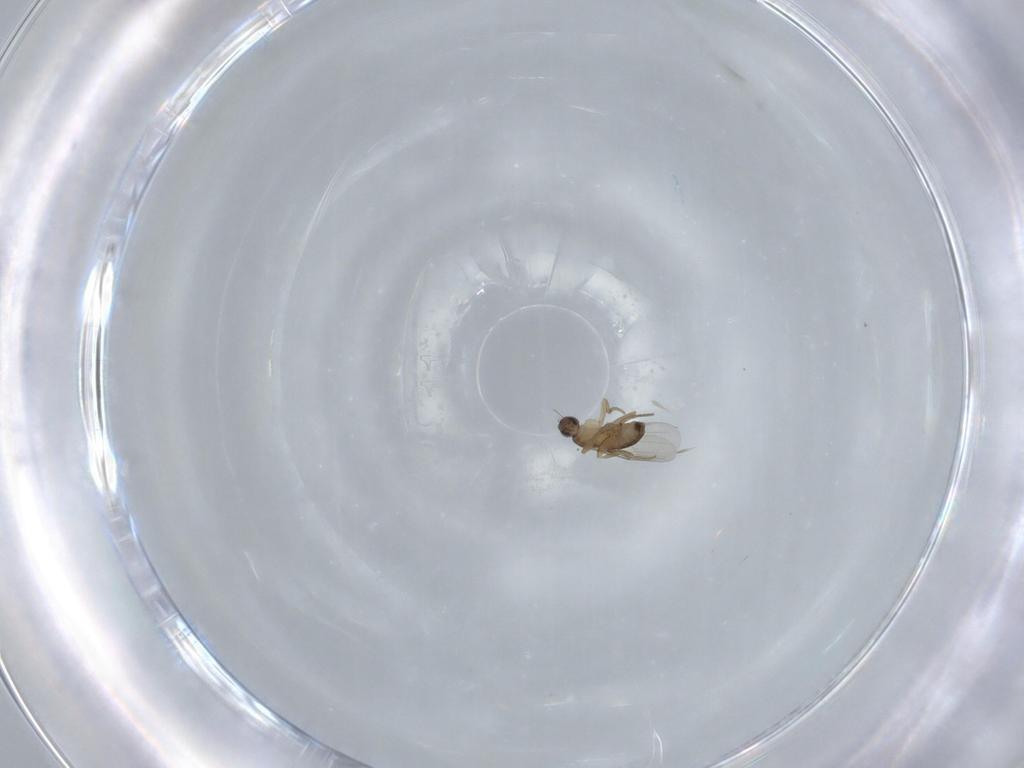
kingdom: Animalia
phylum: Arthropoda
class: Insecta
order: Diptera
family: Phoridae
